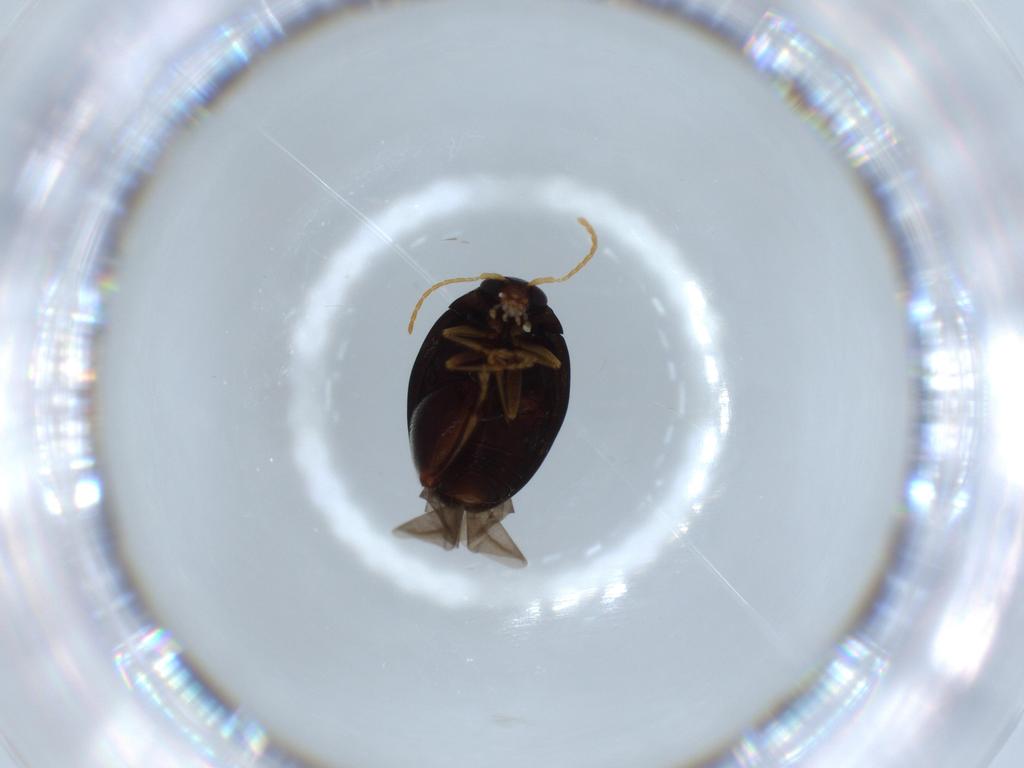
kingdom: Animalia
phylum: Arthropoda
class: Insecta
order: Coleoptera
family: Chrysomelidae
